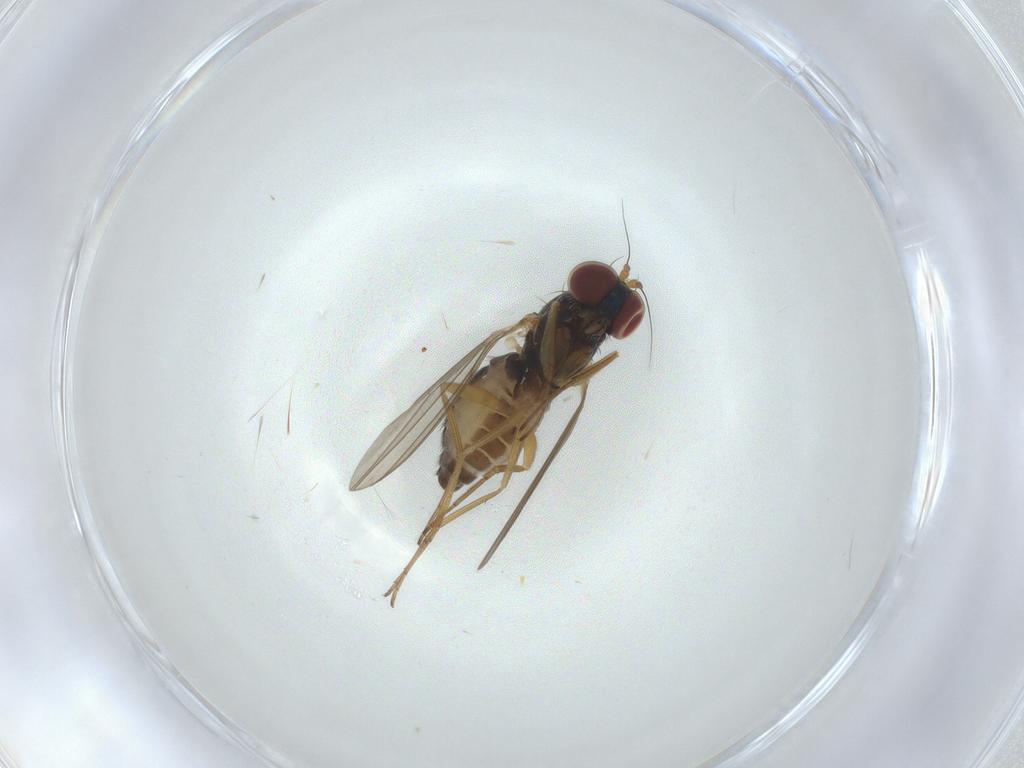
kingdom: Animalia
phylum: Arthropoda
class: Insecta
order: Diptera
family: Dolichopodidae
